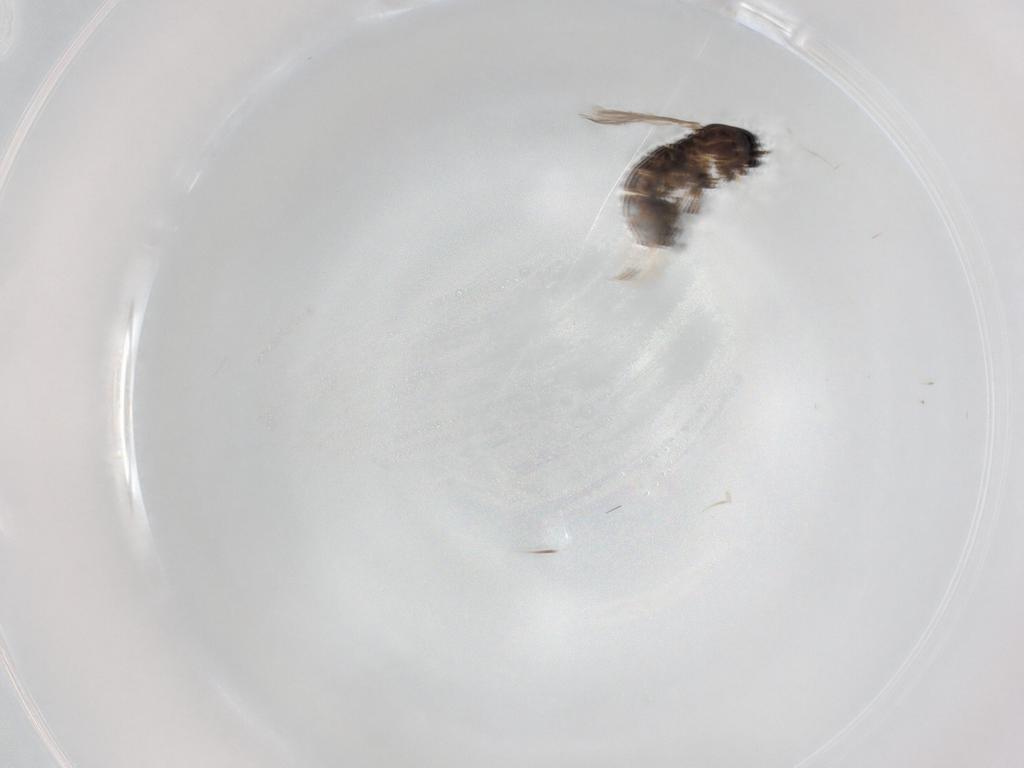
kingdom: Animalia
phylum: Arthropoda
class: Insecta
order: Diptera
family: Chironomidae
